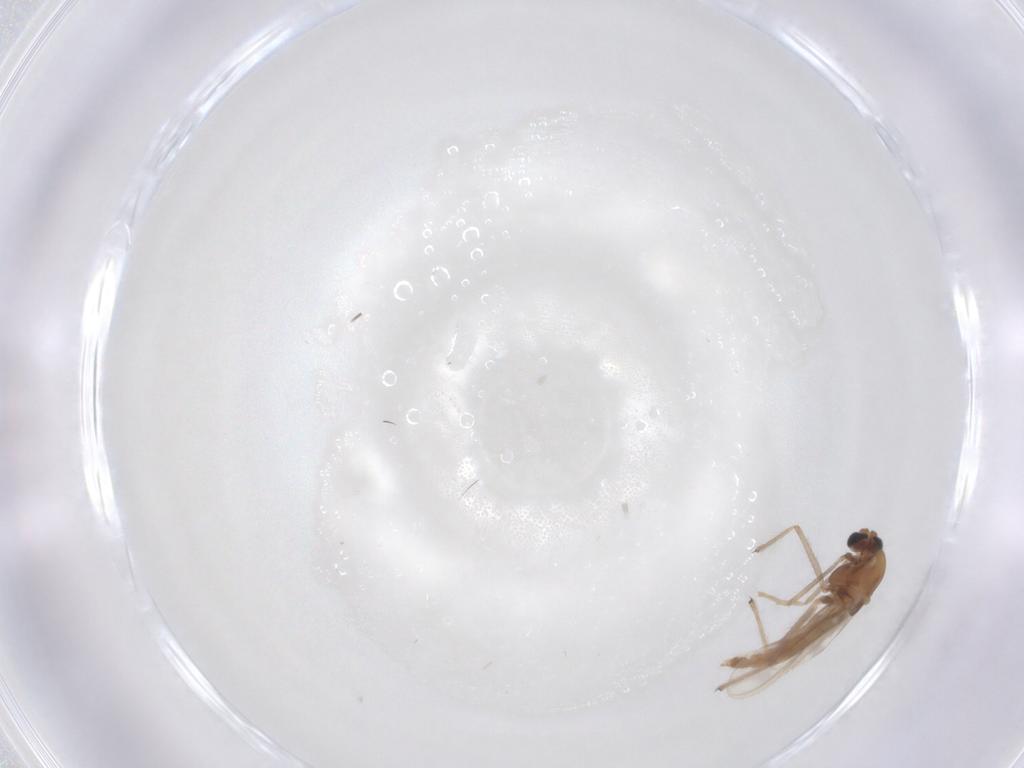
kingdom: Animalia
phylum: Arthropoda
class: Insecta
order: Diptera
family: Chironomidae
